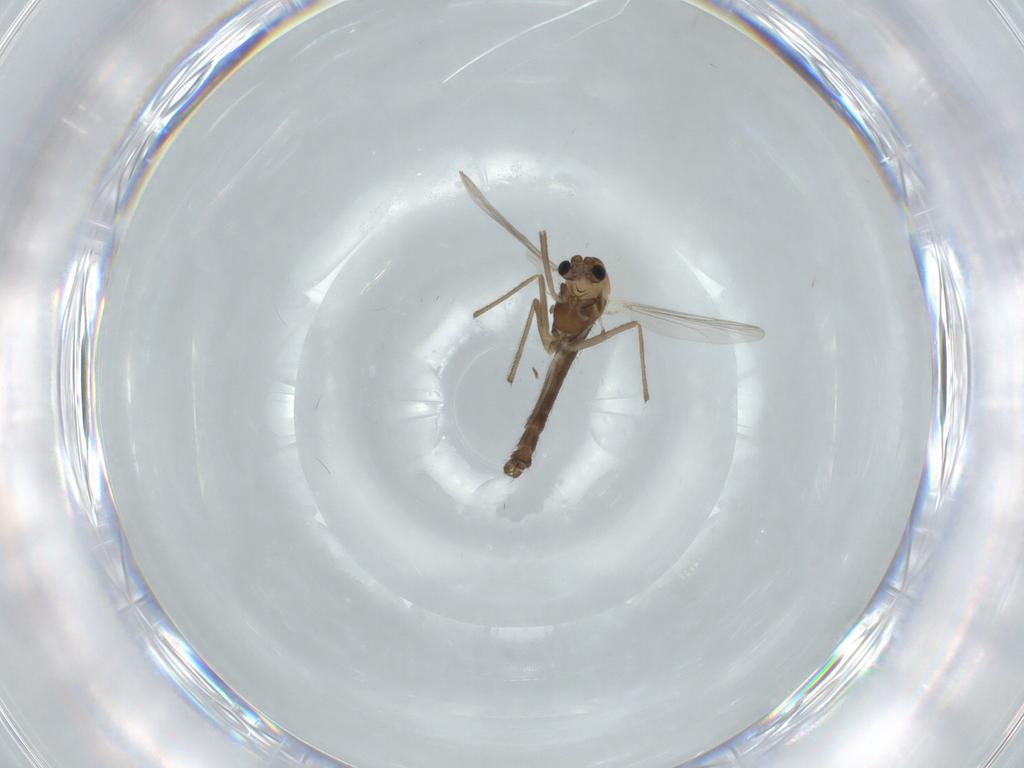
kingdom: Animalia
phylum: Arthropoda
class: Insecta
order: Diptera
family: Chironomidae
